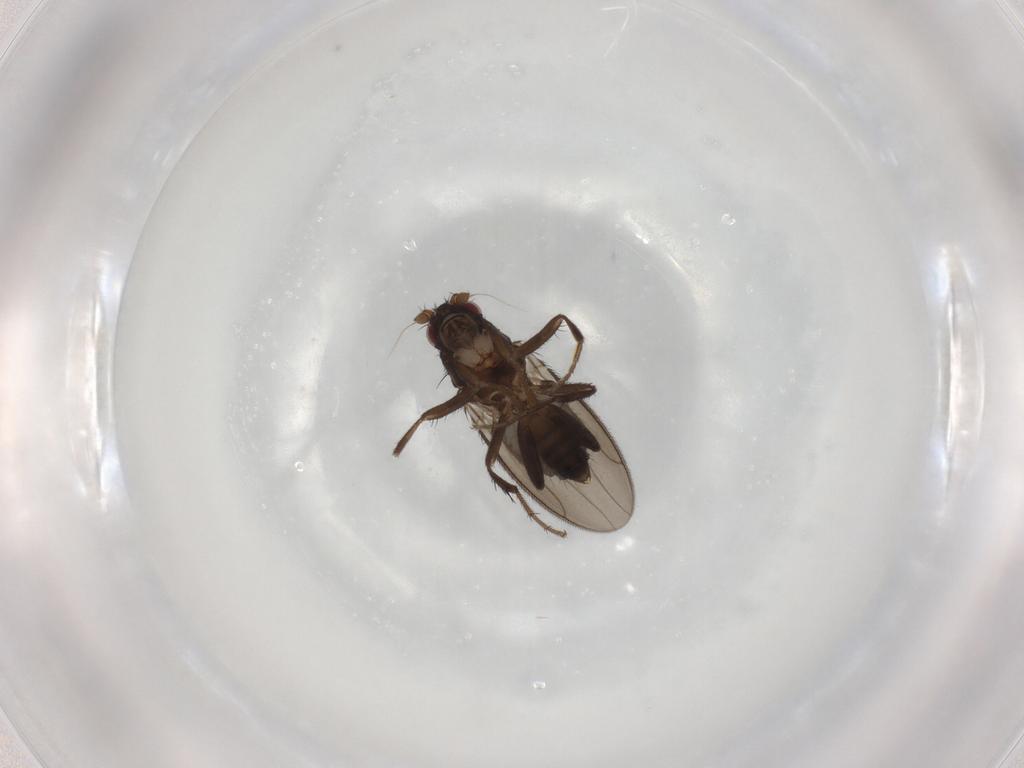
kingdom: Animalia
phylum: Arthropoda
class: Insecta
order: Diptera
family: Sphaeroceridae
